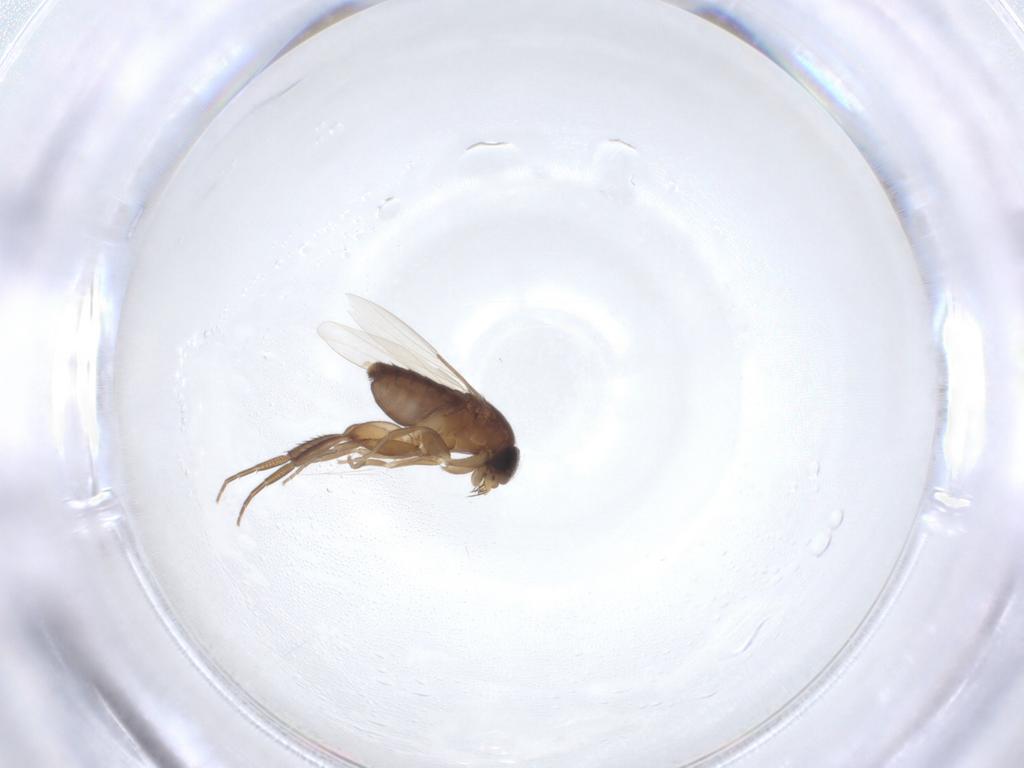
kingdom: Animalia
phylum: Arthropoda
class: Insecta
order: Diptera
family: Phoridae
